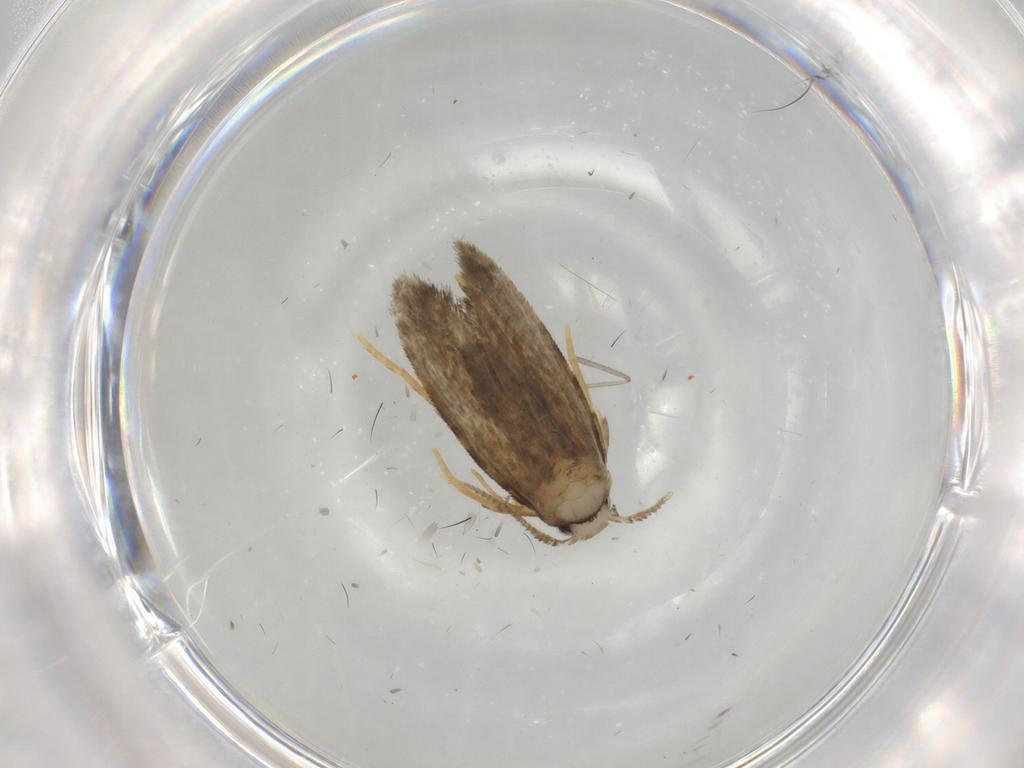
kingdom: Animalia
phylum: Arthropoda
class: Insecta
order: Lepidoptera
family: Psychidae
